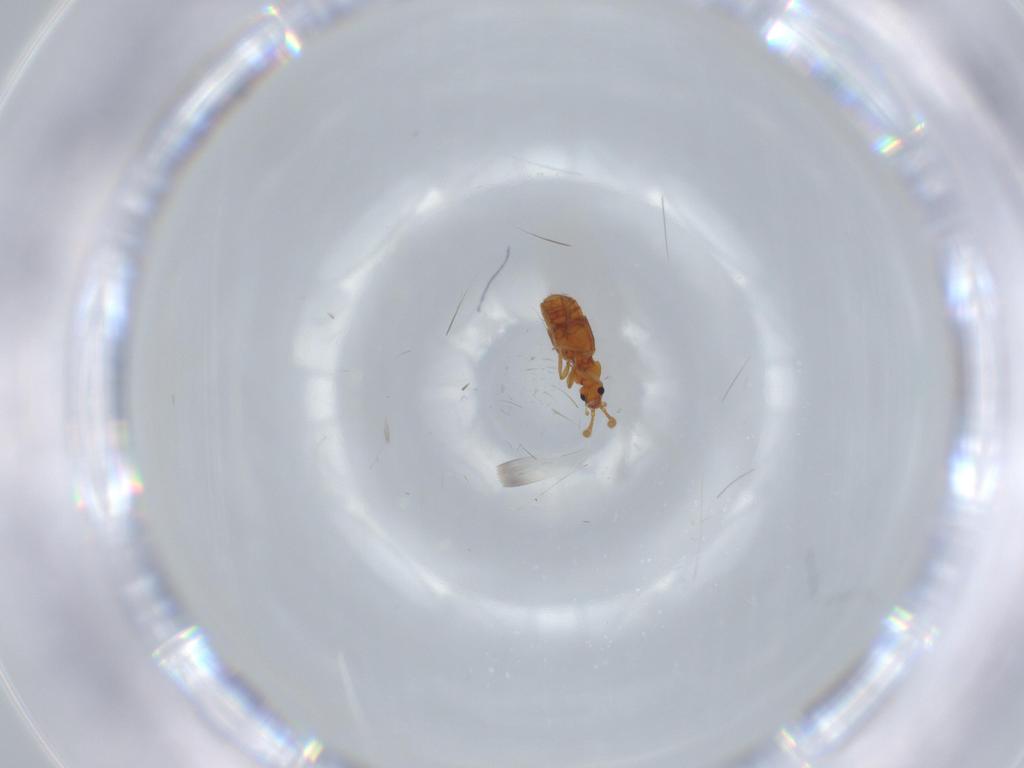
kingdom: Animalia
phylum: Arthropoda
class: Insecta
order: Coleoptera
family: Staphylinidae
